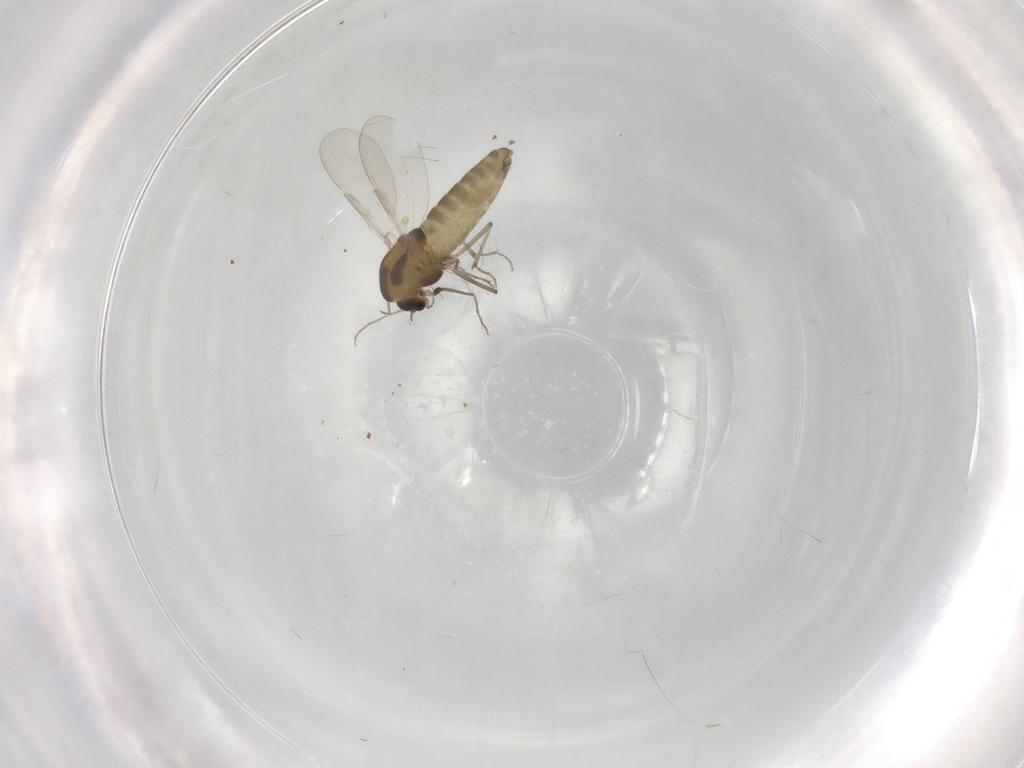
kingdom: Animalia
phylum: Arthropoda
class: Insecta
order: Diptera
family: Chironomidae
